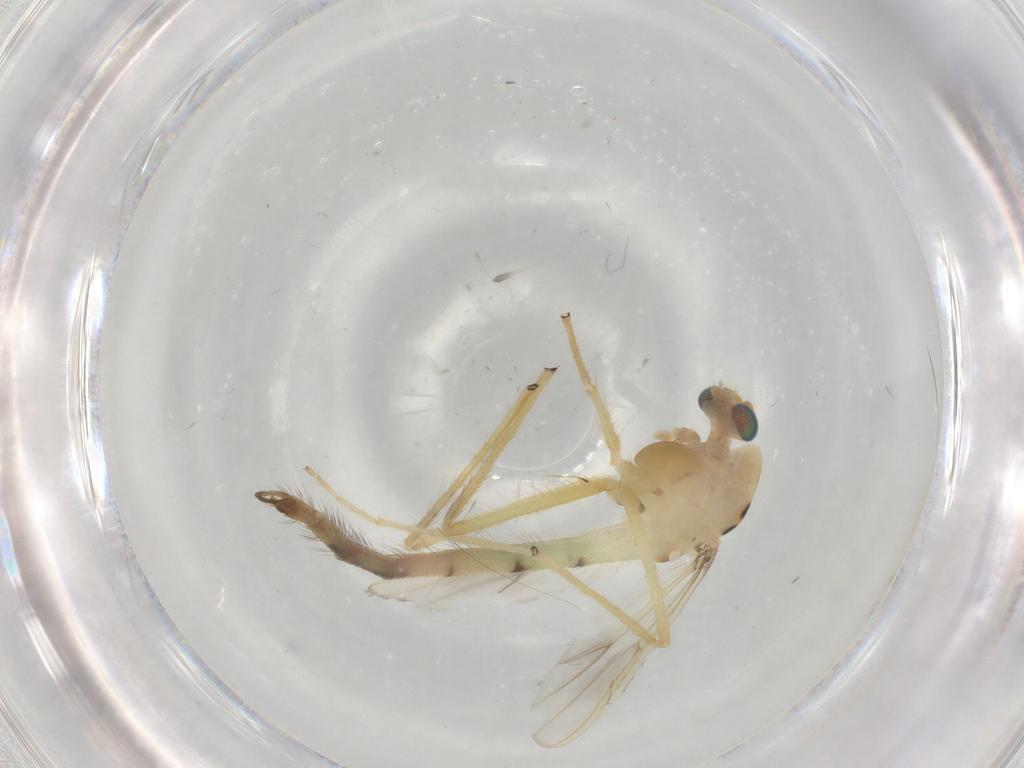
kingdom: Animalia
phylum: Arthropoda
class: Insecta
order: Diptera
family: Chironomidae
